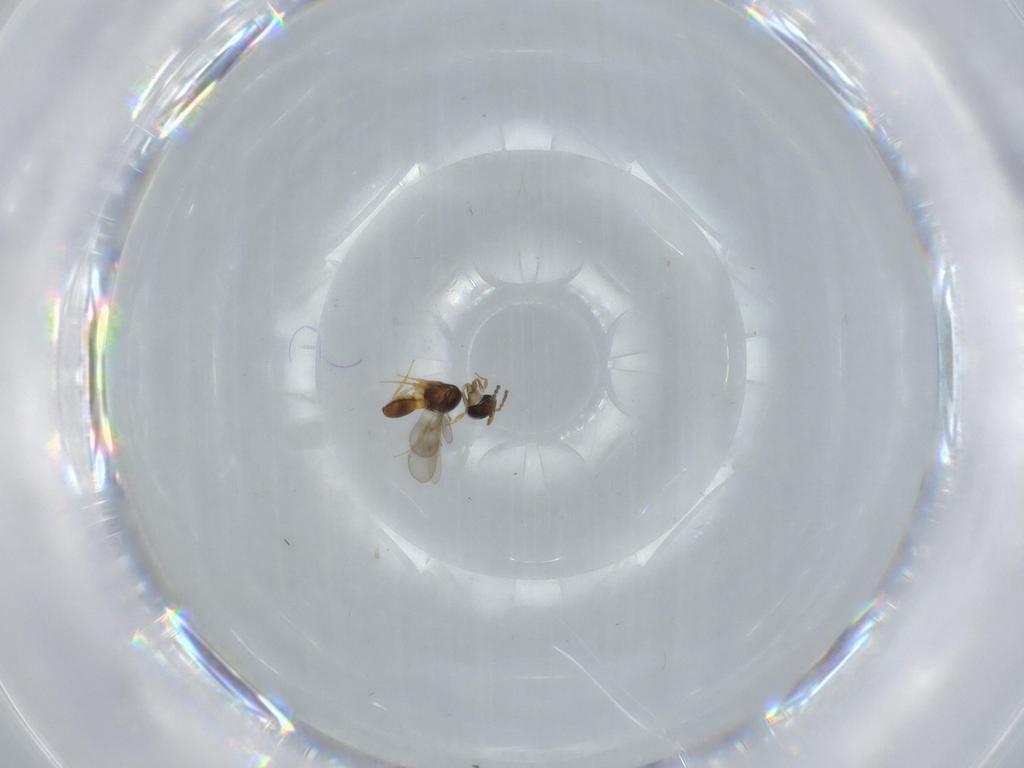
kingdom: Animalia
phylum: Arthropoda
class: Insecta
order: Hymenoptera
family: Scelionidae
